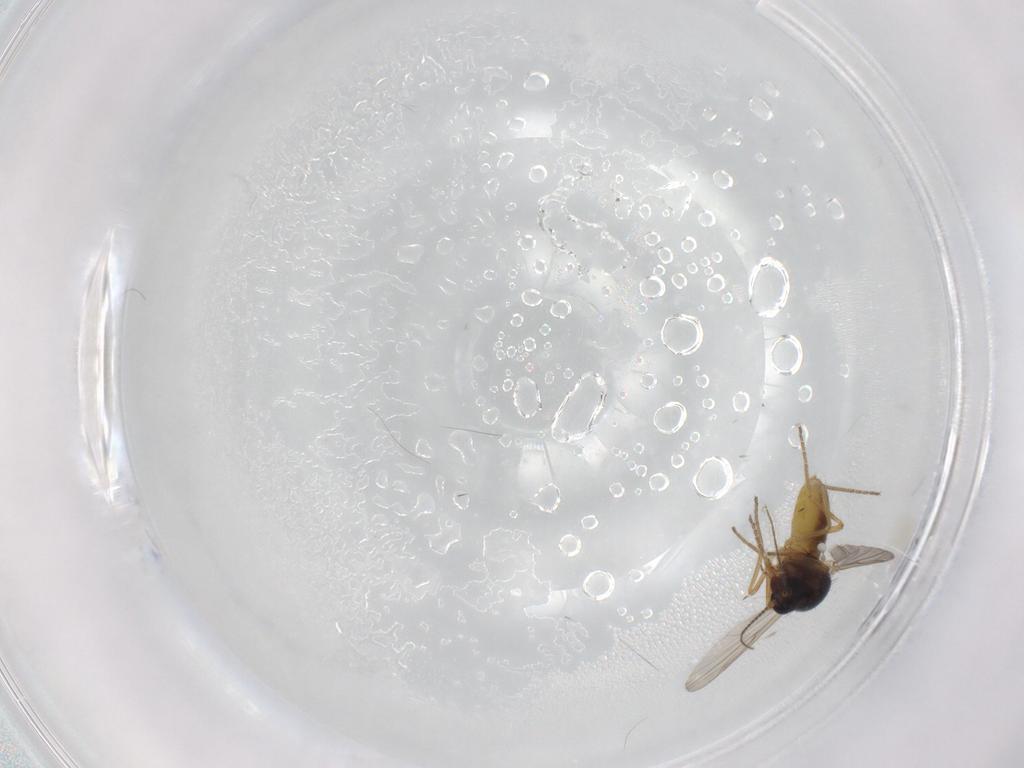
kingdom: Animalia
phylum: Arthropoda
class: Insecta
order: Diptera
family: Ceratopogonidae
